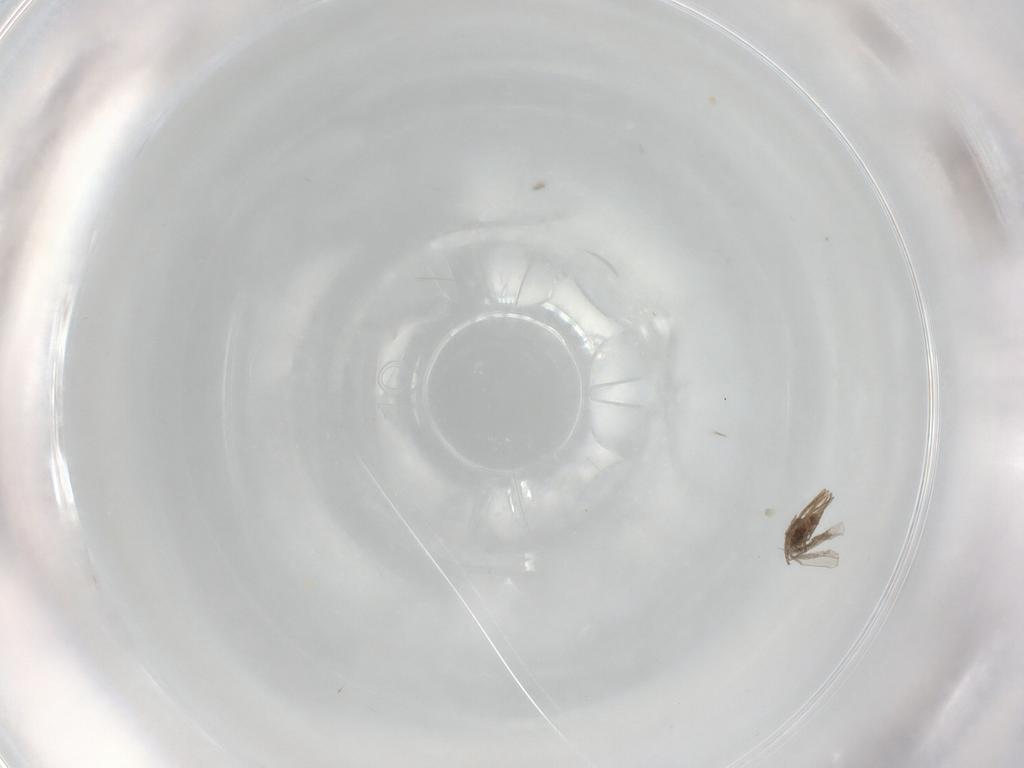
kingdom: Animalia
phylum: Arthropoda
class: Insecta
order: Diptera
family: Cecidomyiidae
